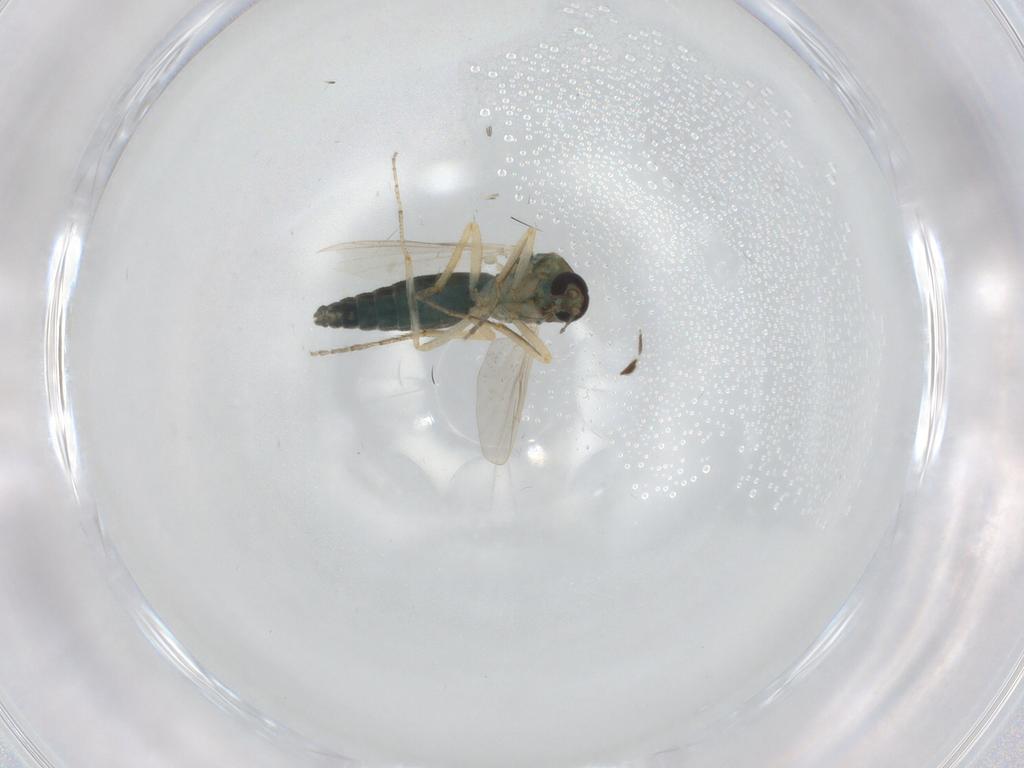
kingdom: Animalia
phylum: Arthropoda
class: Insecta
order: Diptera
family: Ceratopogonidae
